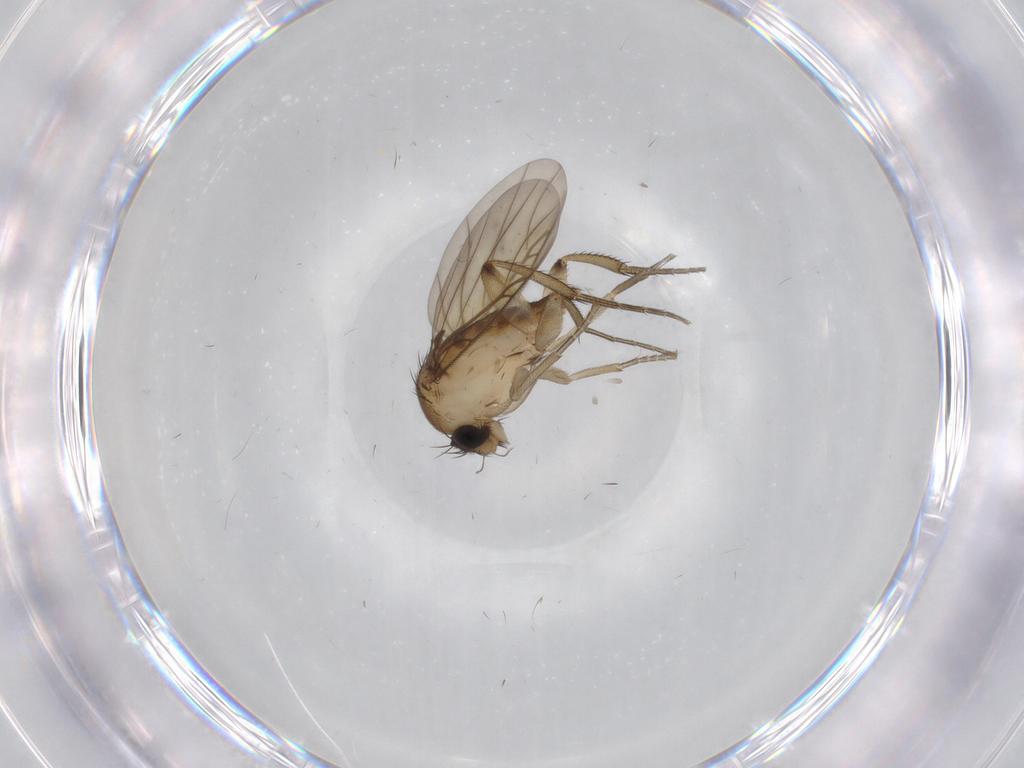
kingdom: Animalia
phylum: Arthropoda
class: Insecta
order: Diptera
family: Phoridae
